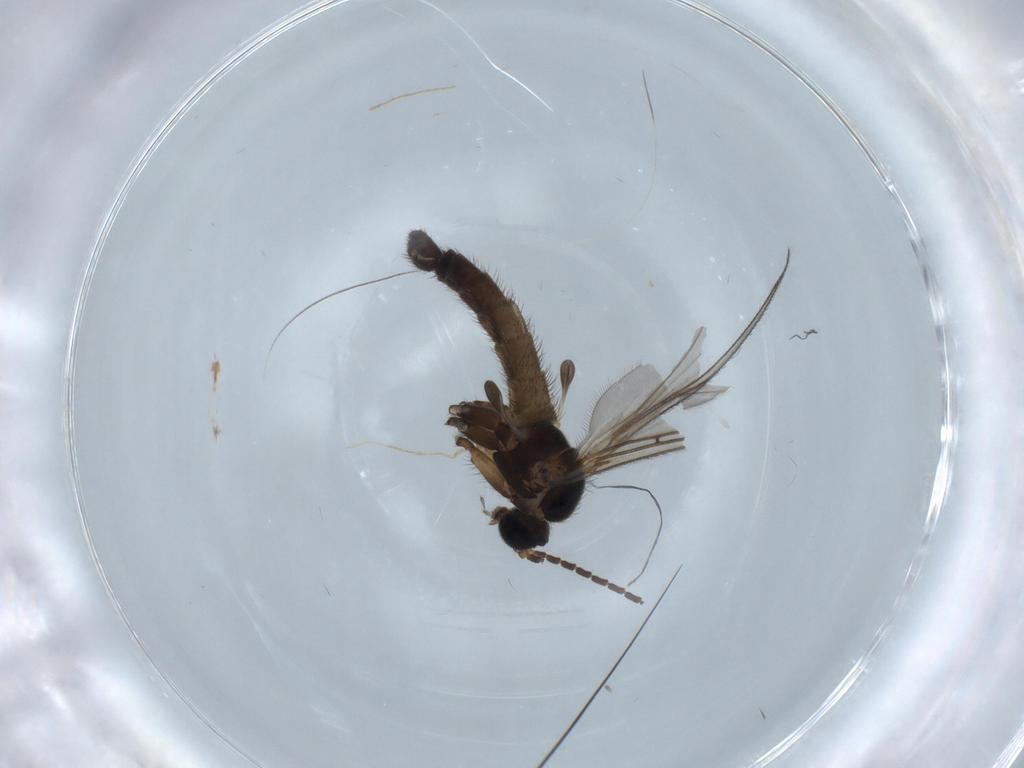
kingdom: Animalia
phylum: Arthropoda
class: Insecta
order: Diptera
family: Sciaridae
